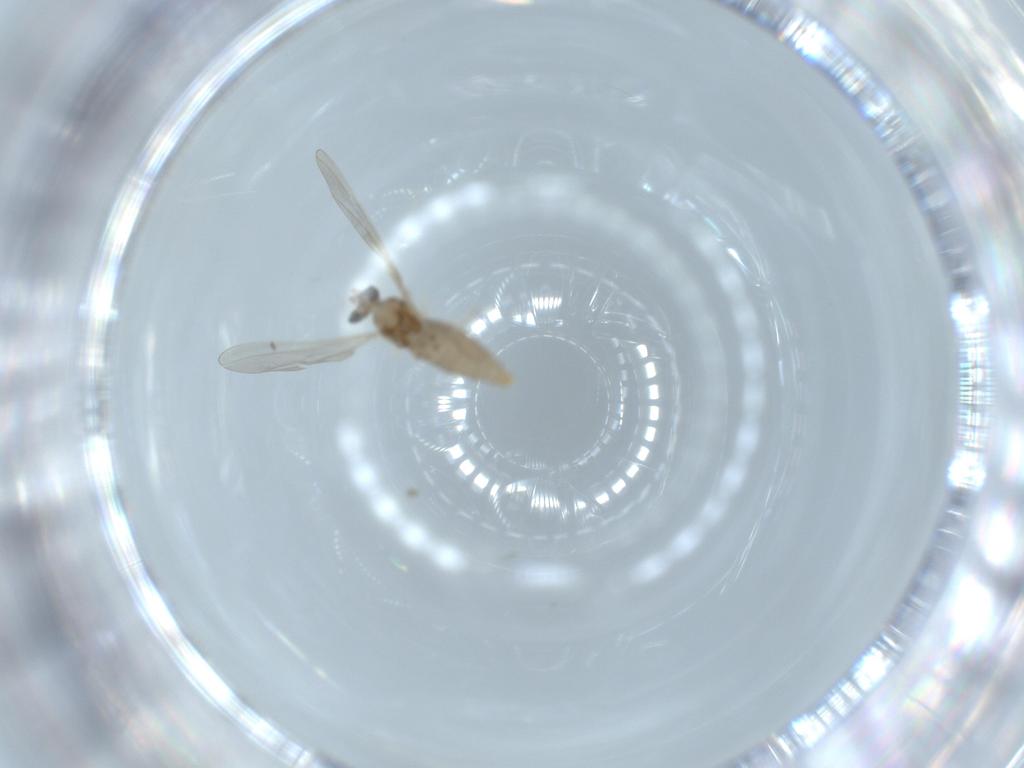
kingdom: Animalia
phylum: Arthropoda
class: Insecta
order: Diptera
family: Cecidomyiidae
